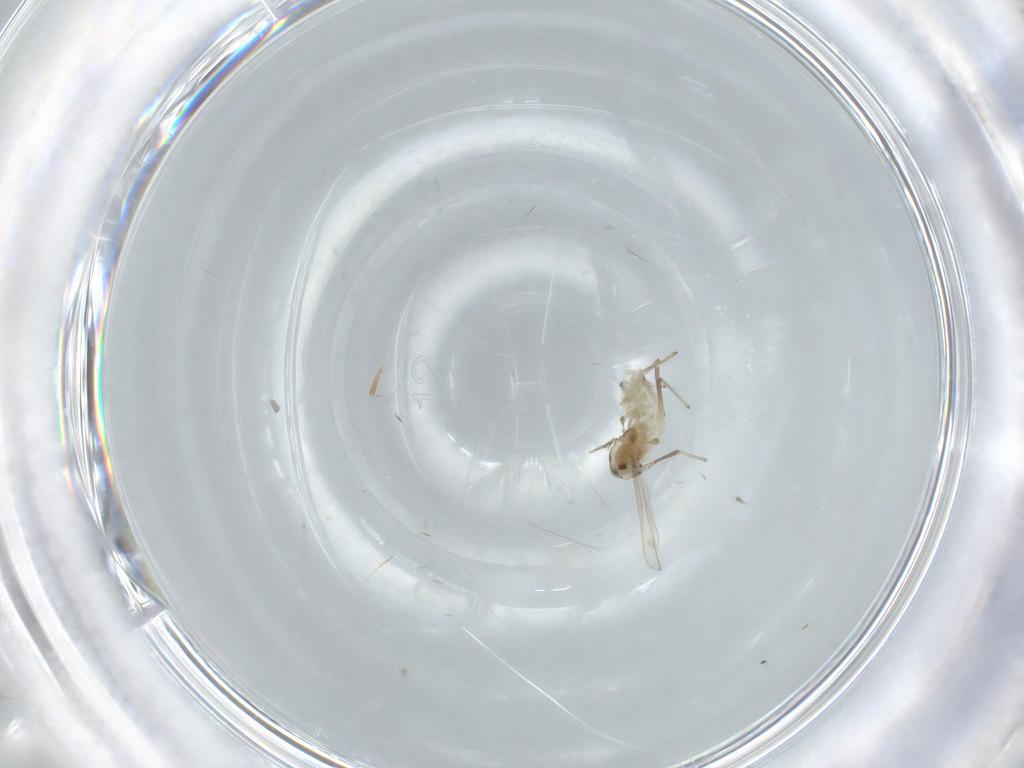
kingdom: Animalia
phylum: Arthropoda
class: Insecta
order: Diptera
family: Chironomidae
